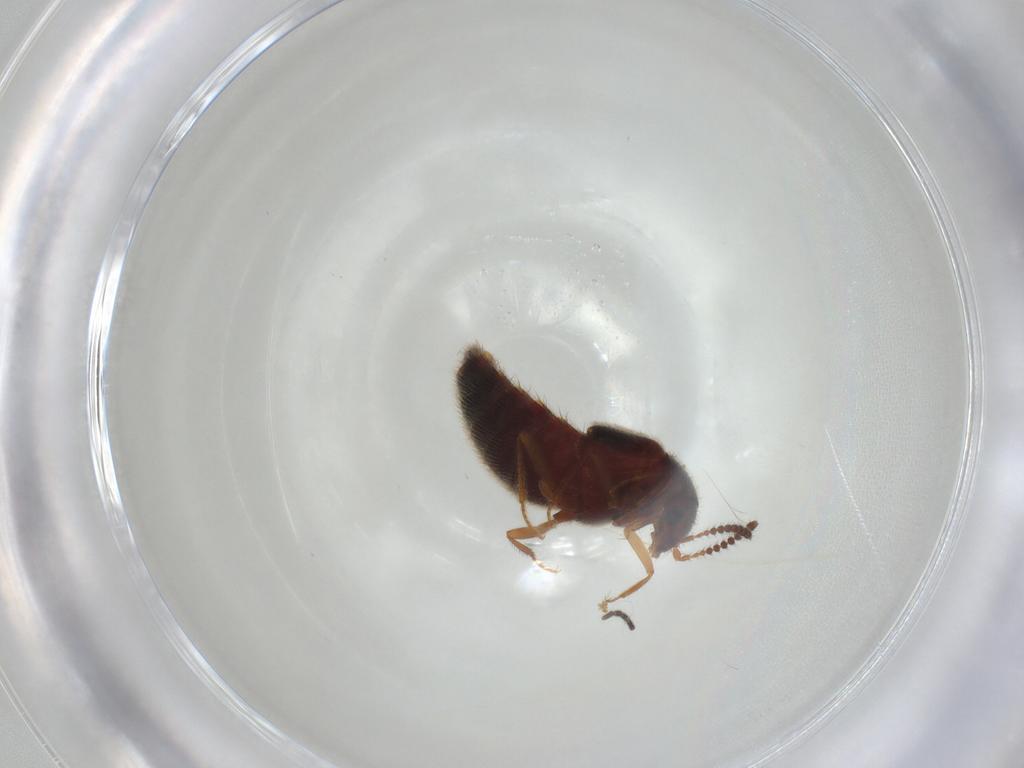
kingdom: Animalia
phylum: Arthropoda
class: Insecta
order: Coleoptera
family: Staphylinidae
